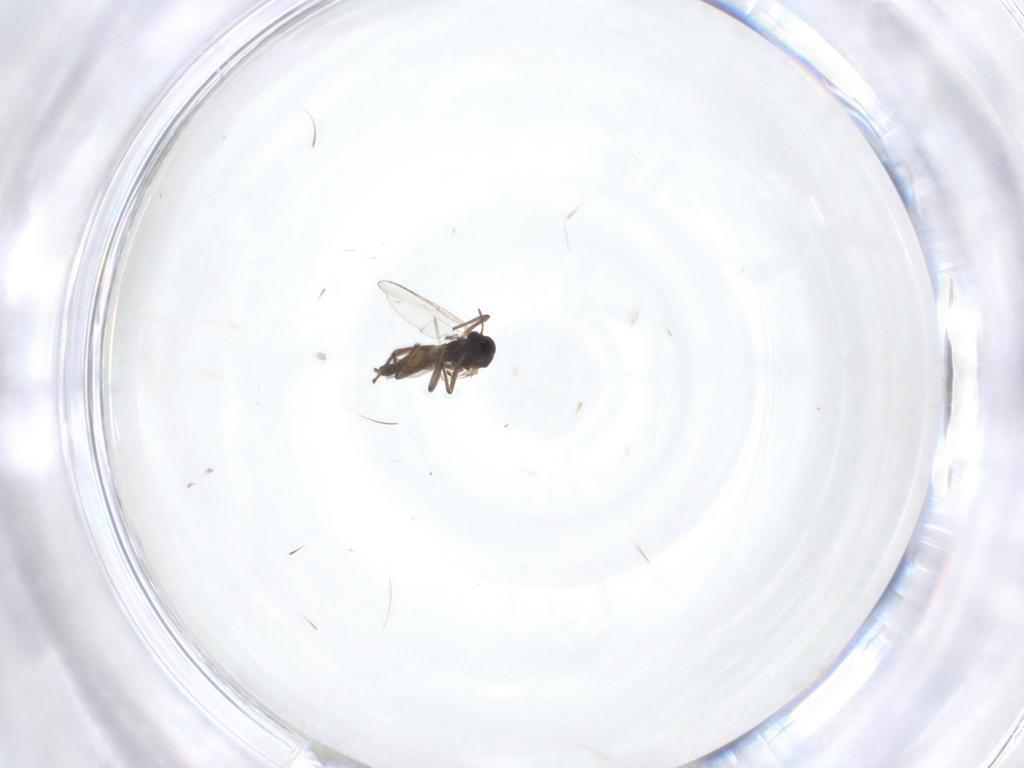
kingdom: Animalia
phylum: Arthropoda
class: Insecta
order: Diptera
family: Chironomidae
